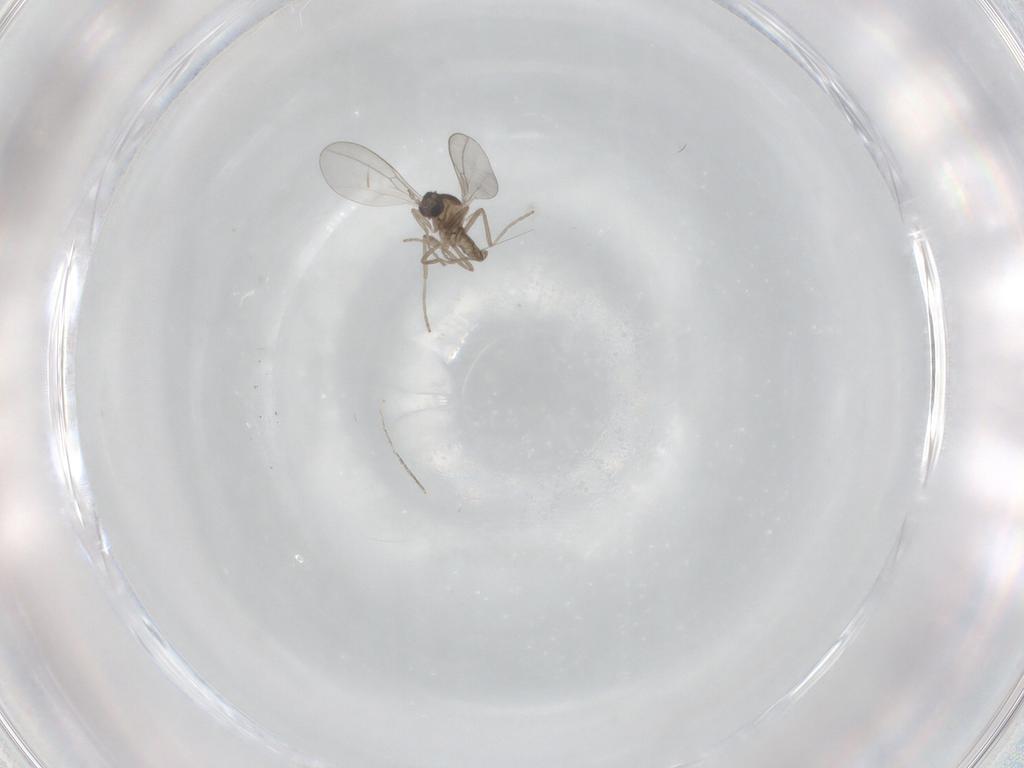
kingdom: Animalia
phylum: Arthropoda
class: Insecta
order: Diptera
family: Cecidomyiidae
